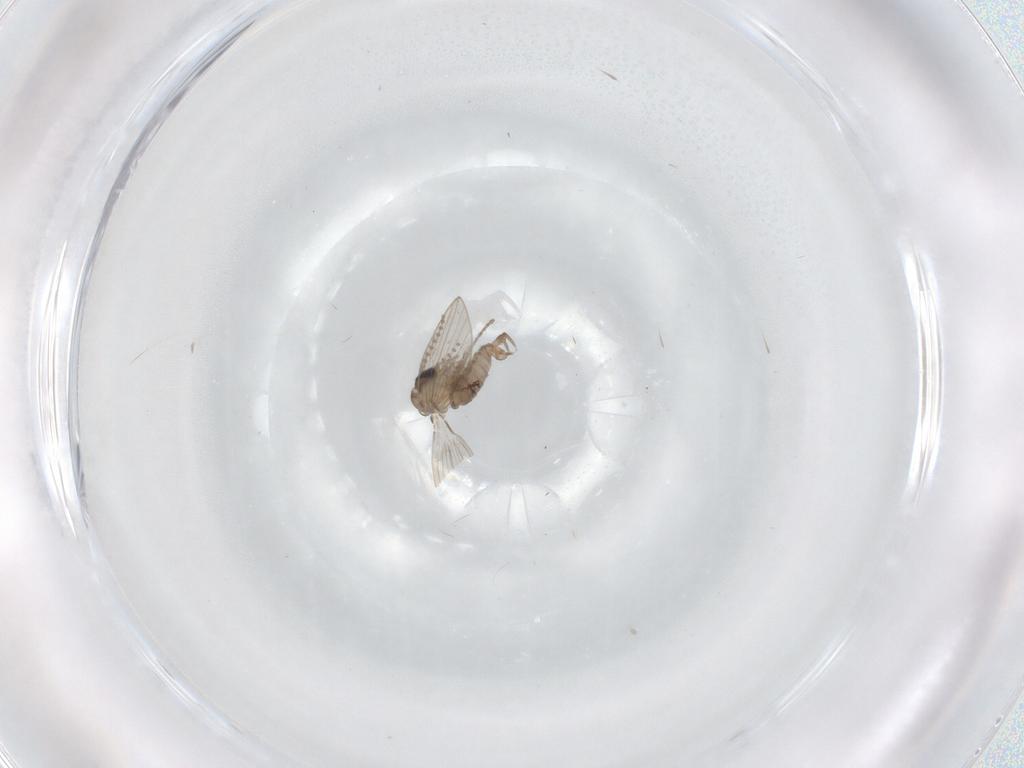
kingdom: Animalia
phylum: Arthropoda
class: Insecta
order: Diptera
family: Psychodidae
